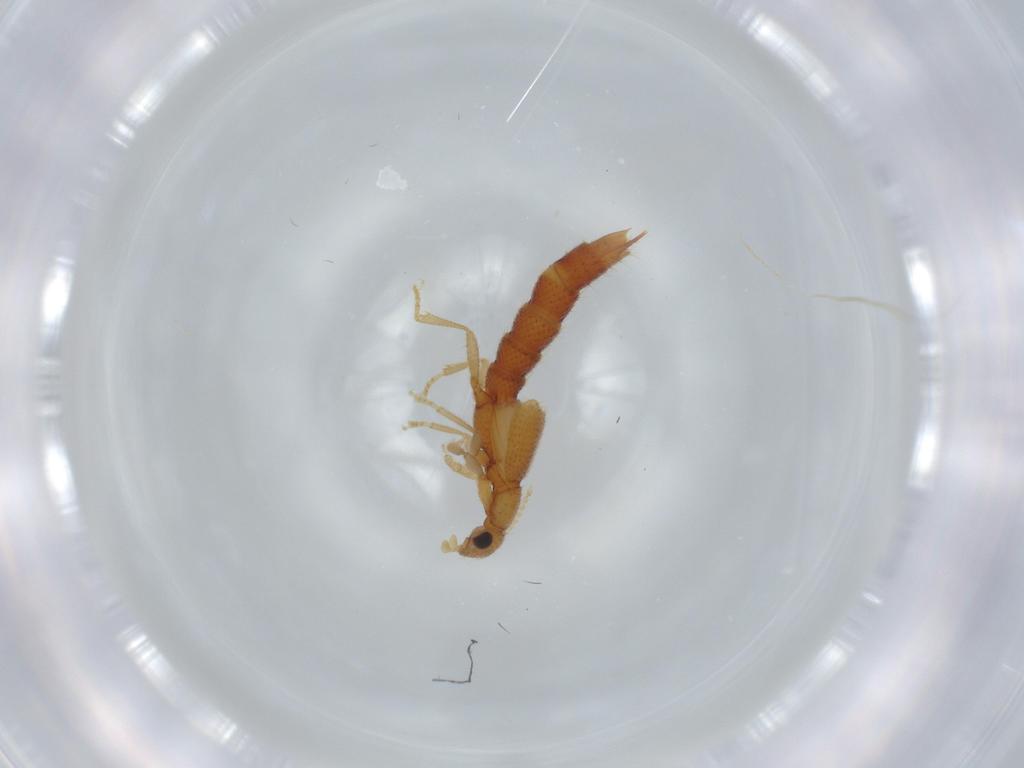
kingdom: Animalia
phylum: Arthropoda
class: Insecta
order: Coleoptera
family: Staphylinidae
